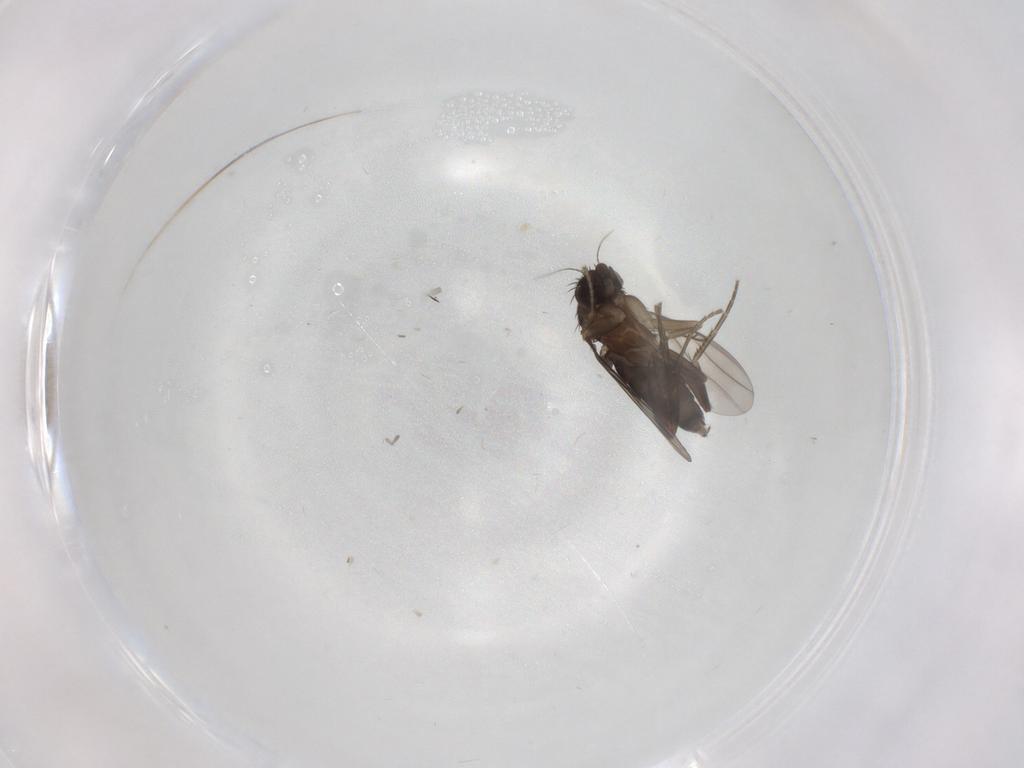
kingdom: Animalia
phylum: Arthropoda
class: Insecta
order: Diptera
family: Phoridae
